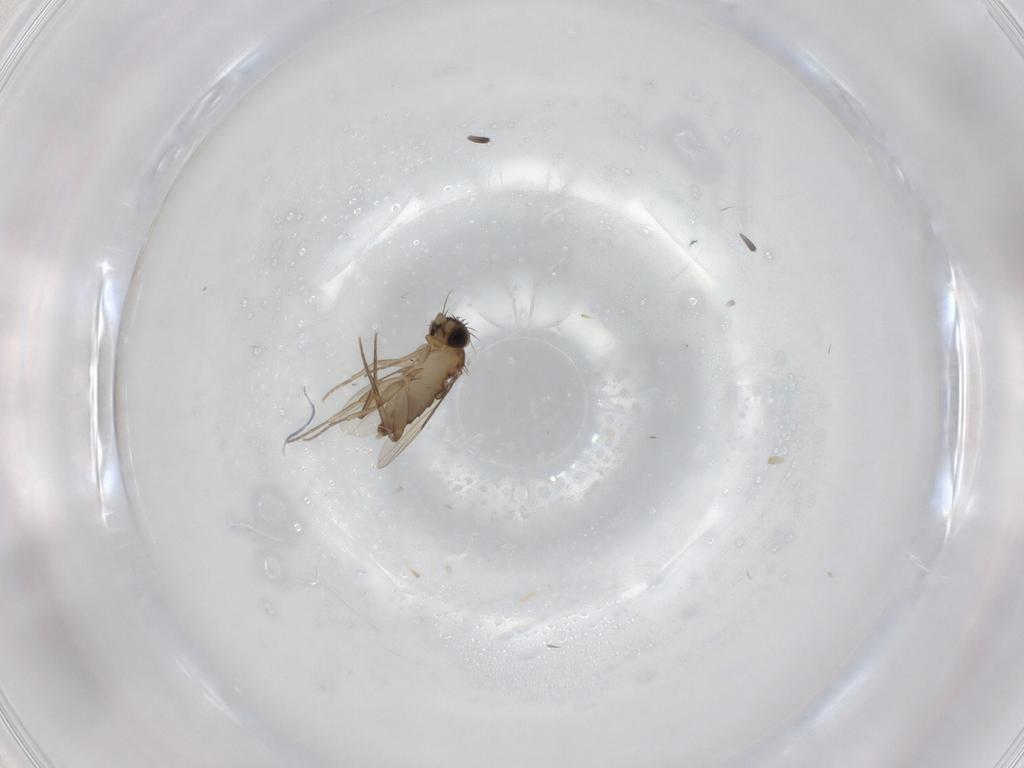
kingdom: Animalia
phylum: Arthropoda
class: Insecta
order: Diptera
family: Phoridae
